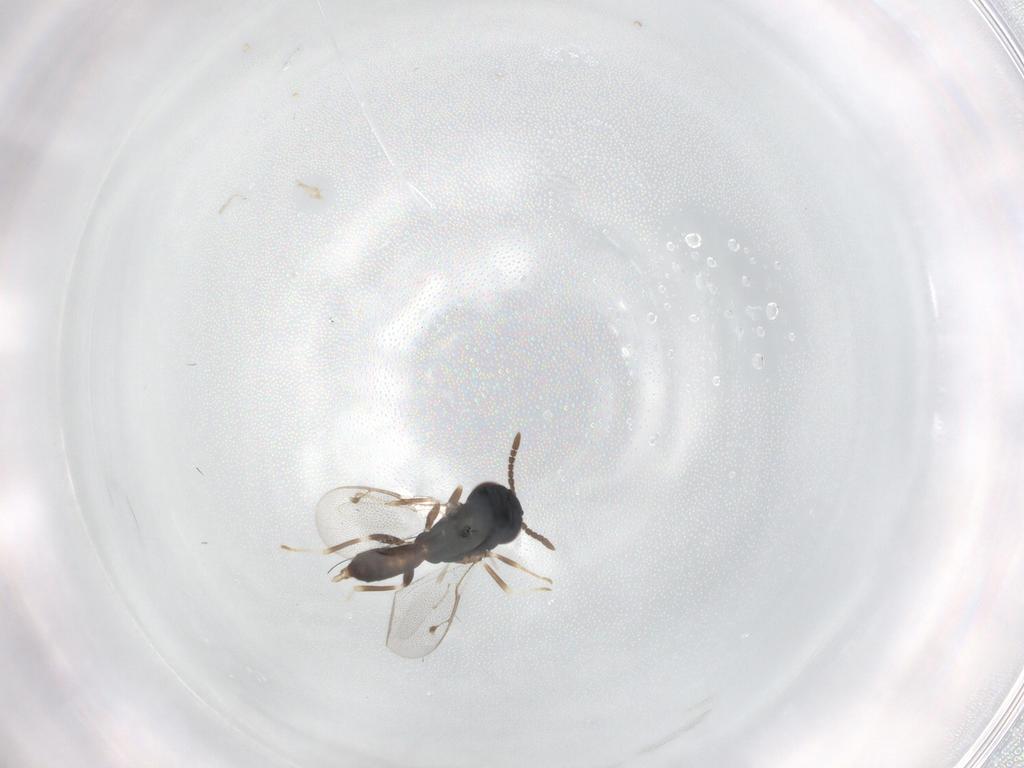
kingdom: Animalia
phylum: Arthropoda
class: Insecta
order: Hymenoptera
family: Pteromalidae
